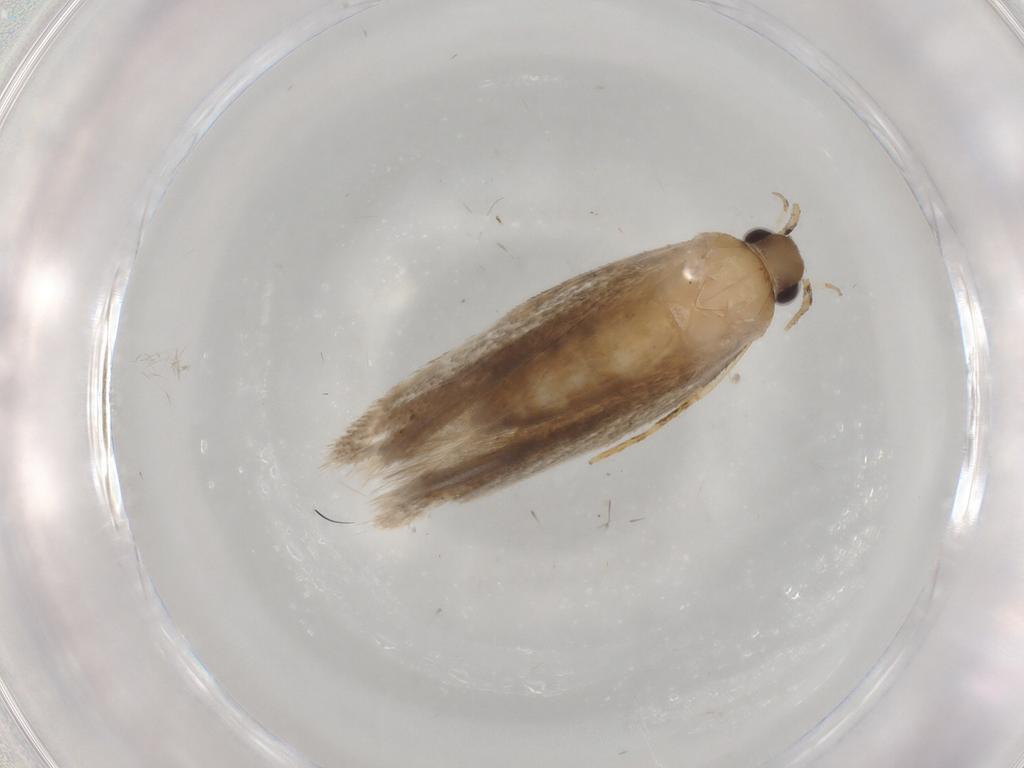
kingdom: Animalia
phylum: Arthropoda
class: Insecta
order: Lepidoptera
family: Autostichidae
